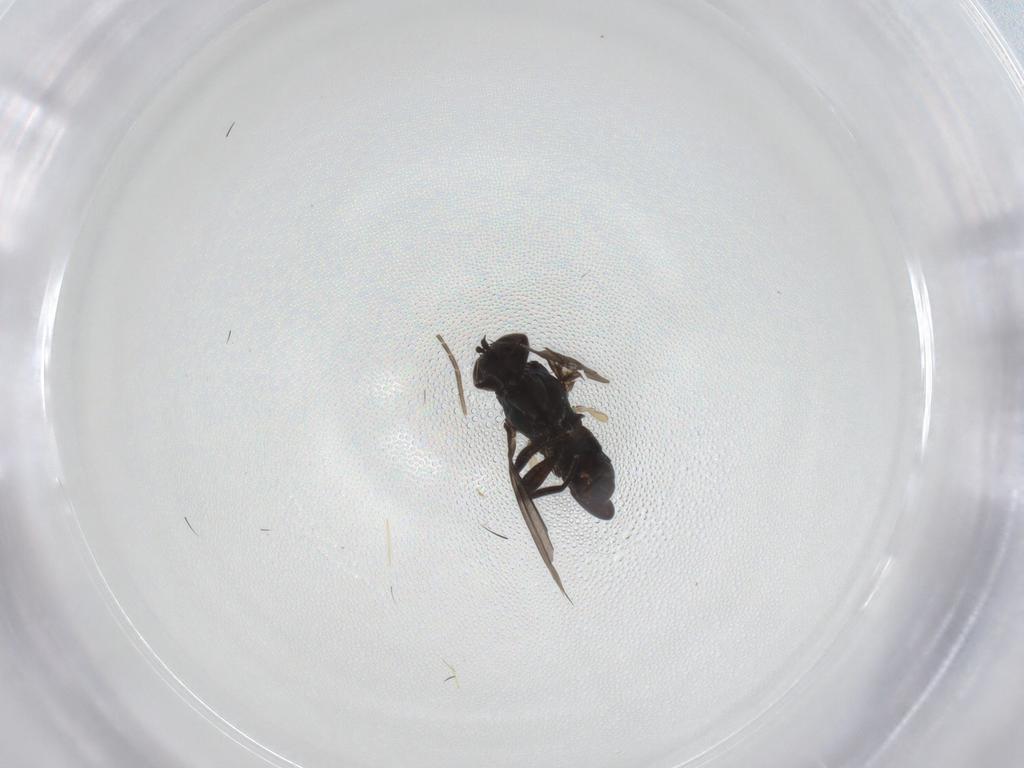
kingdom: Animalia
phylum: Arthropoda
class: Insecta
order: Diptera
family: Dolichopodidae
